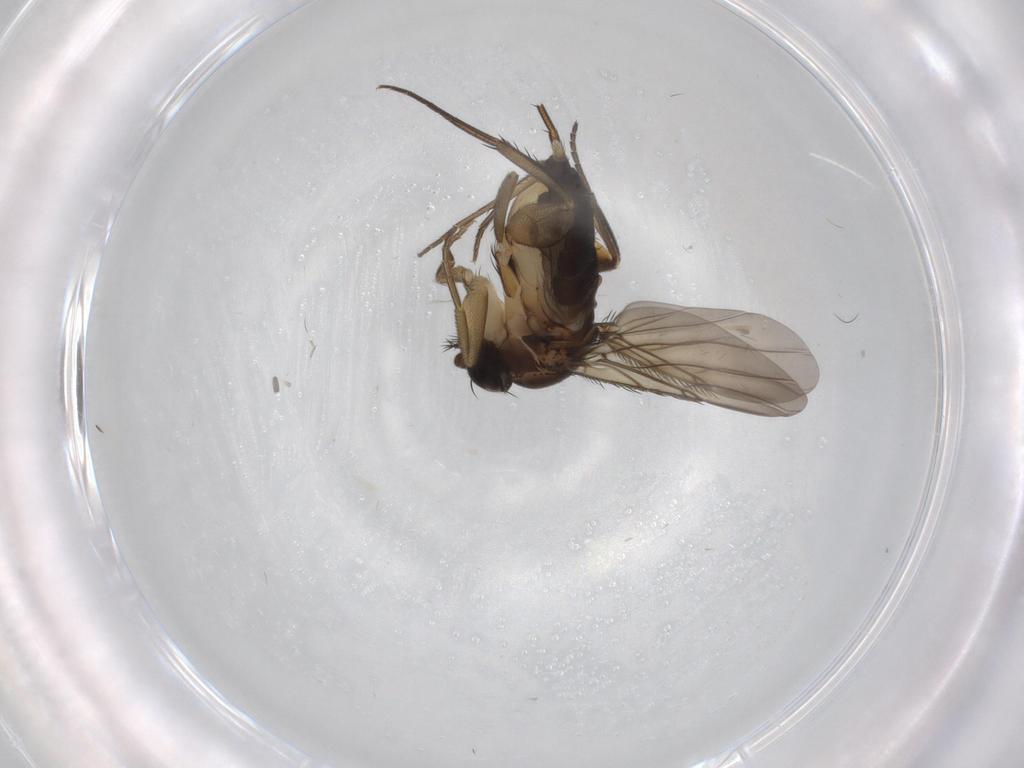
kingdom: Animalia
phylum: Arthropoda
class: Insecta
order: Diptera
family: Phoridae
